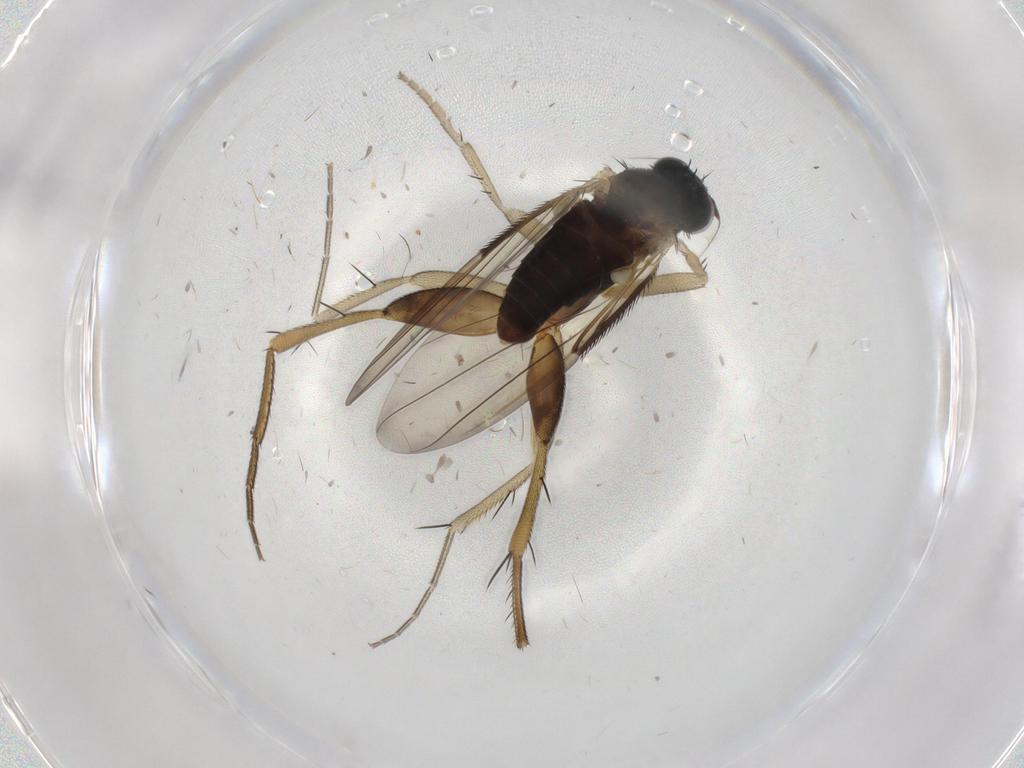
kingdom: Animalia
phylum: Arthropoda
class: Insecta
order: Diptera
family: Phoridae
